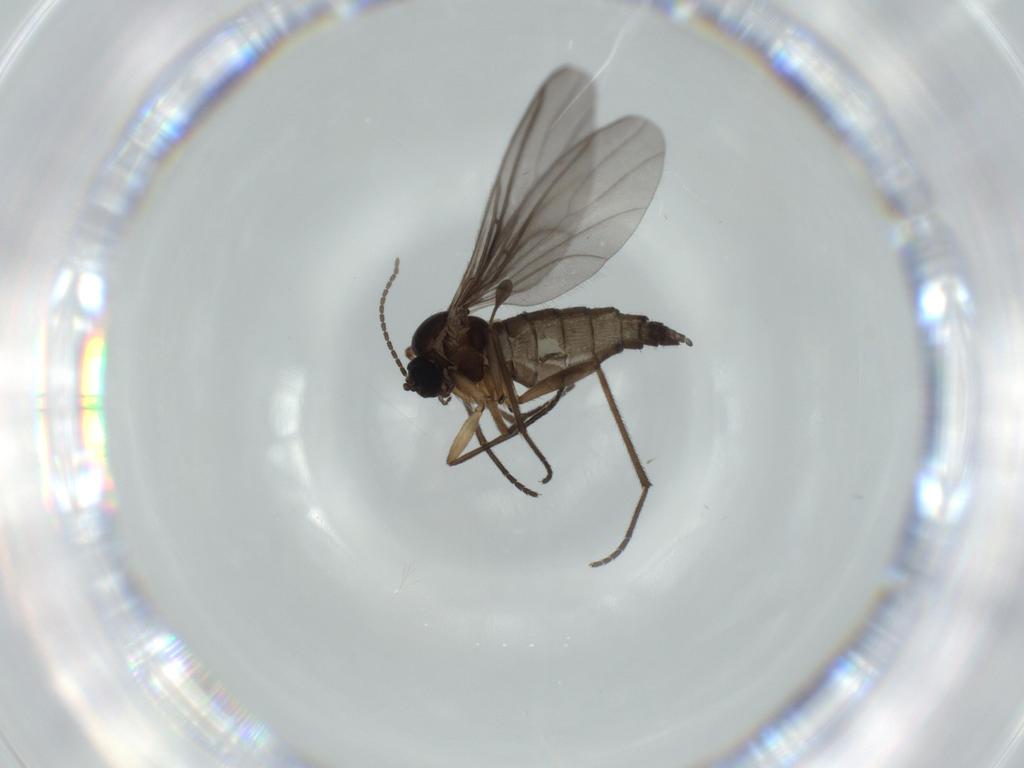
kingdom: Animalia
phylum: Arthropoda
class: Insecta
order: Diptera
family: Sciaridae
